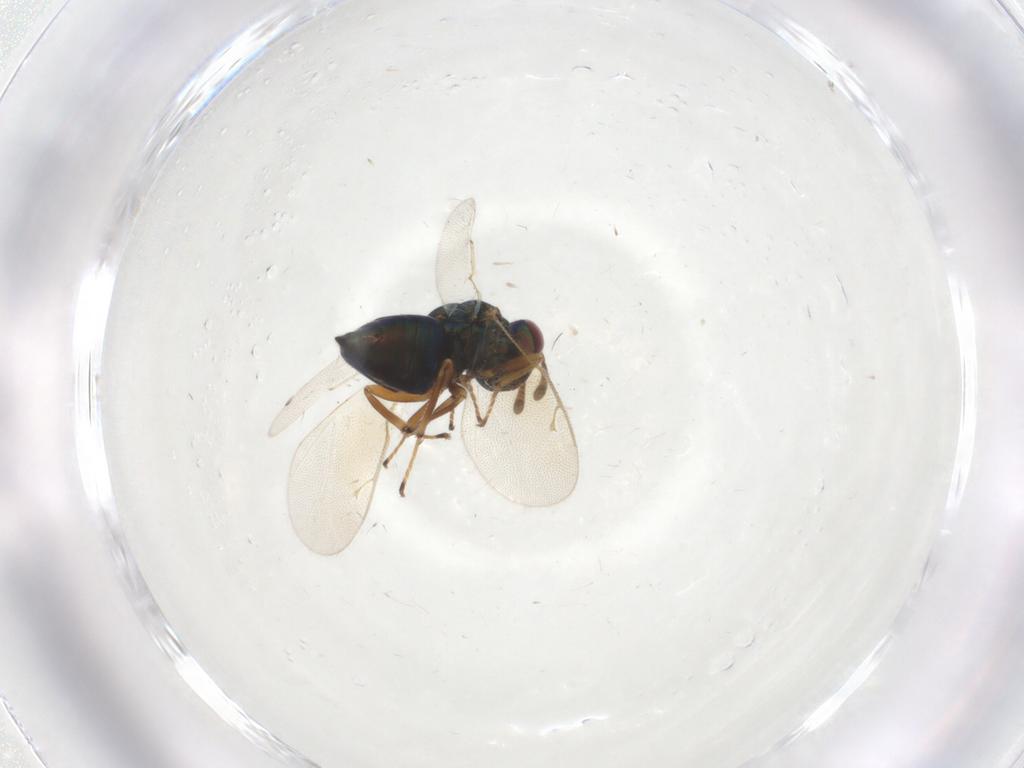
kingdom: Animalia
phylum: Arthropoda
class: Insecta
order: Hymenoptera
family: Pteromalidae
